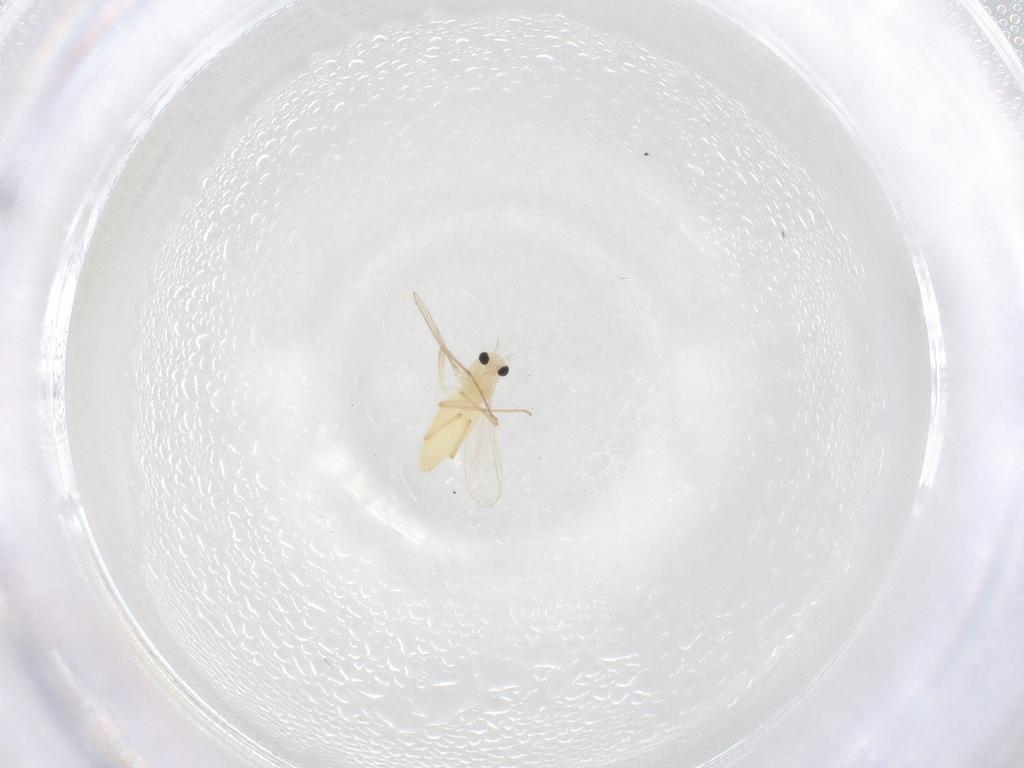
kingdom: Animalia
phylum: Arthropoda
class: Insecta
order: Diptera
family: Chironomidae
